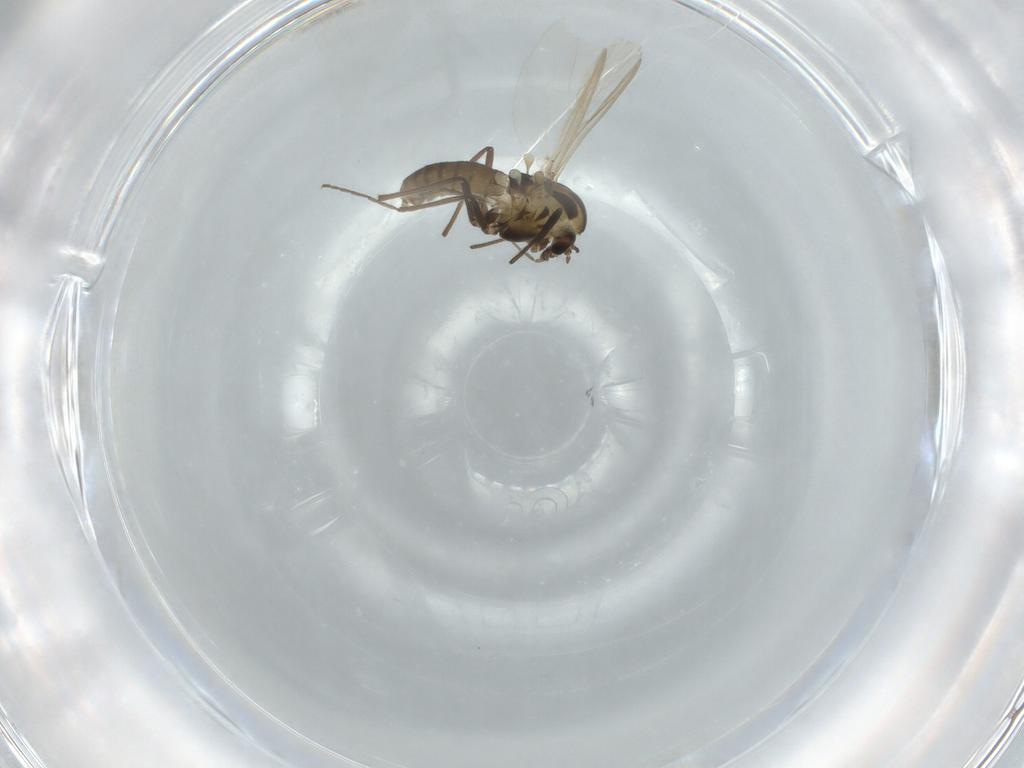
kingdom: Animalia
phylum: Arthropoda
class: Insecta
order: Diptera
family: Chironomidae
